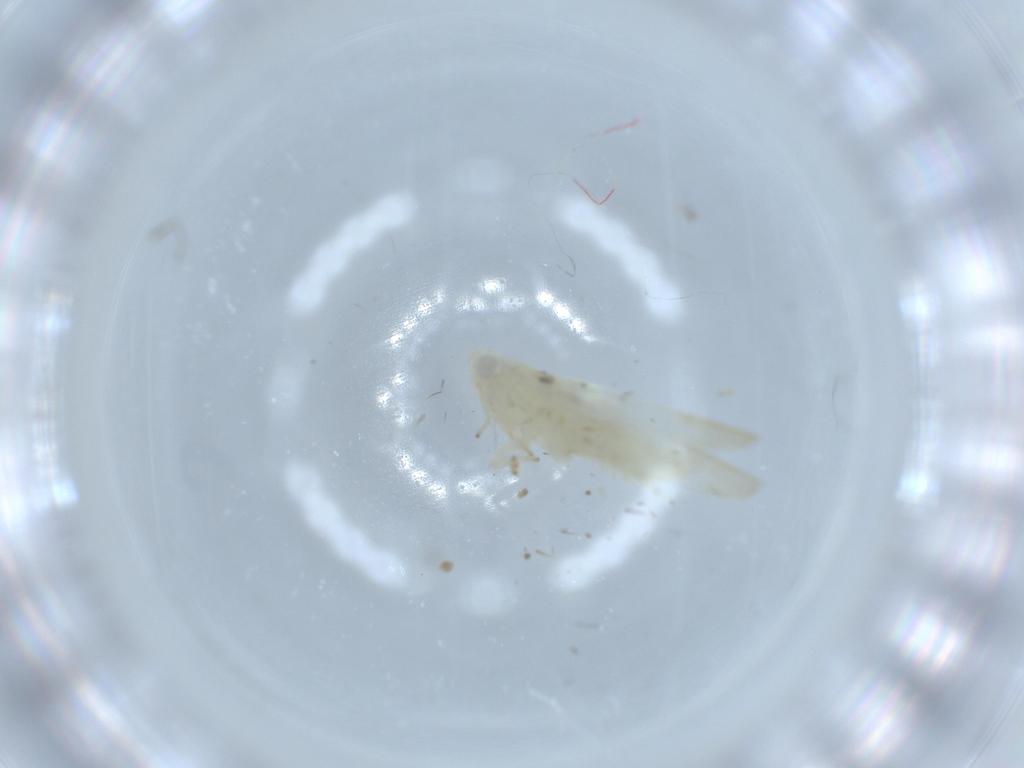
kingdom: Animalia
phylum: Arthropoda
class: Insecta
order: Hemiptera
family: Cicadellidae
